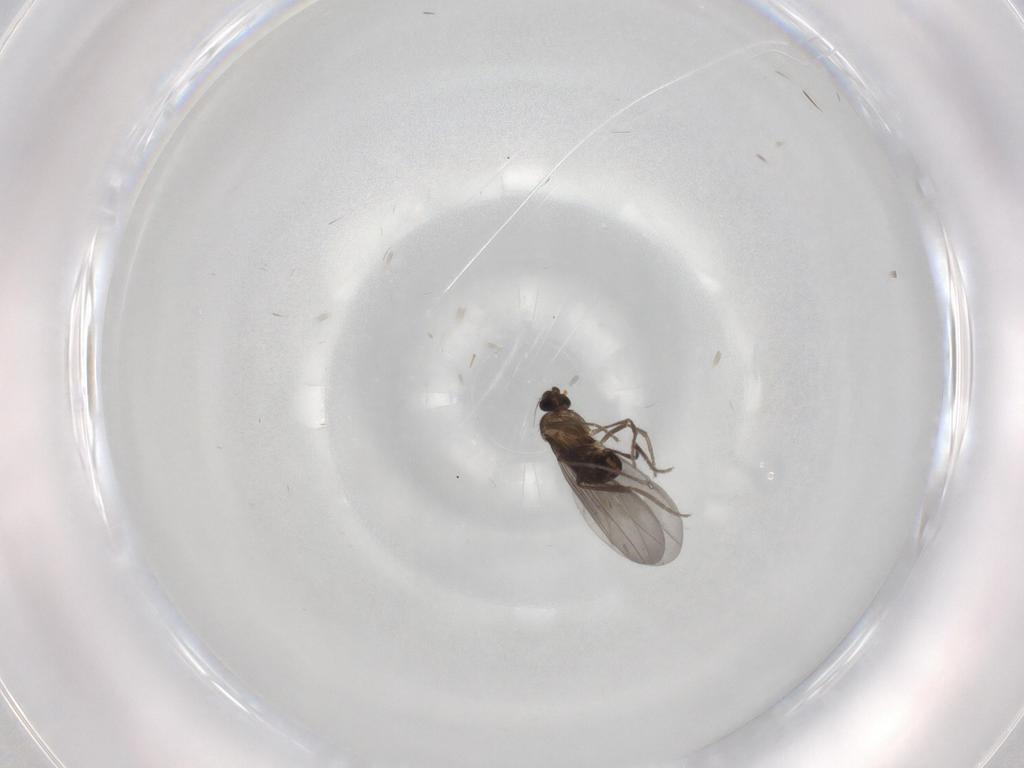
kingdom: Animalia
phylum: Arthropoda
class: Insecta
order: Diptera
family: Phoridae
